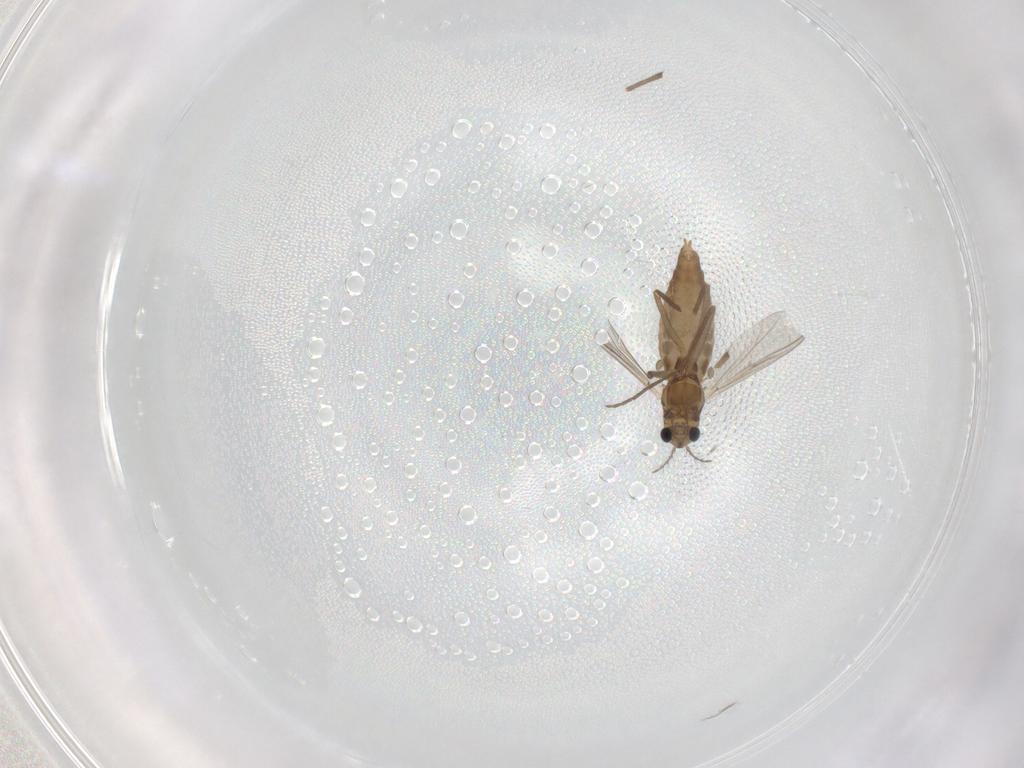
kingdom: Animalia
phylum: Arthropoda
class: Insecta
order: Diptera
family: Chironomidae
